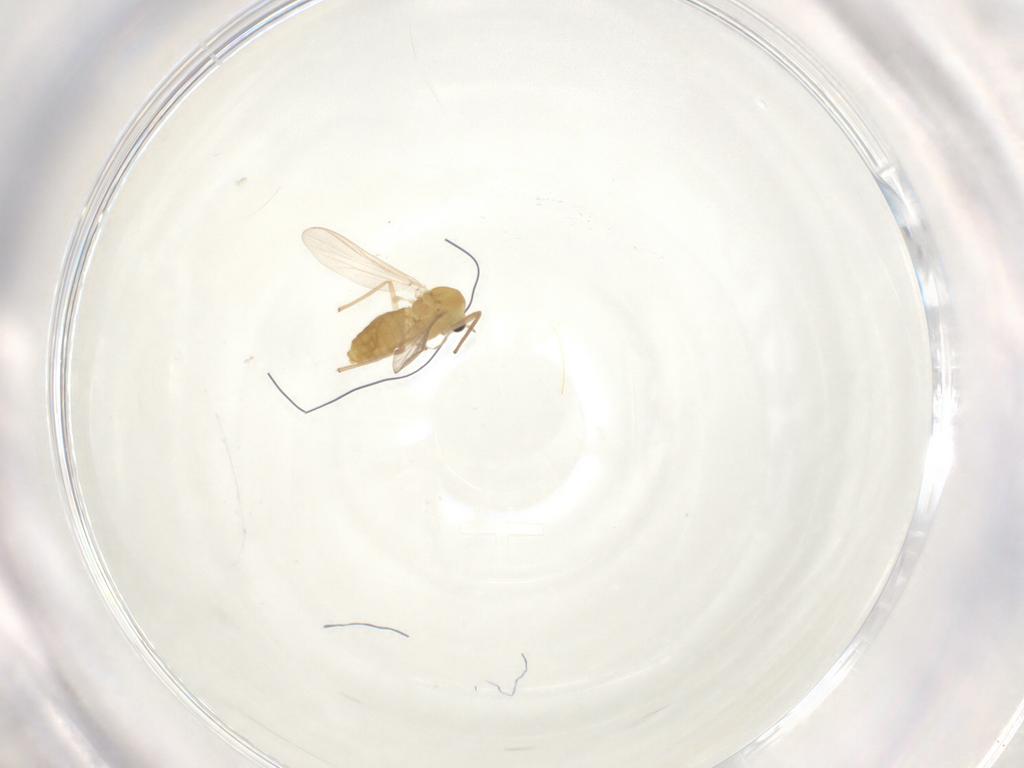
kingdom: Animalia
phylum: Arthropoda
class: Insecta
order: Diptera
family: Chironomidae
